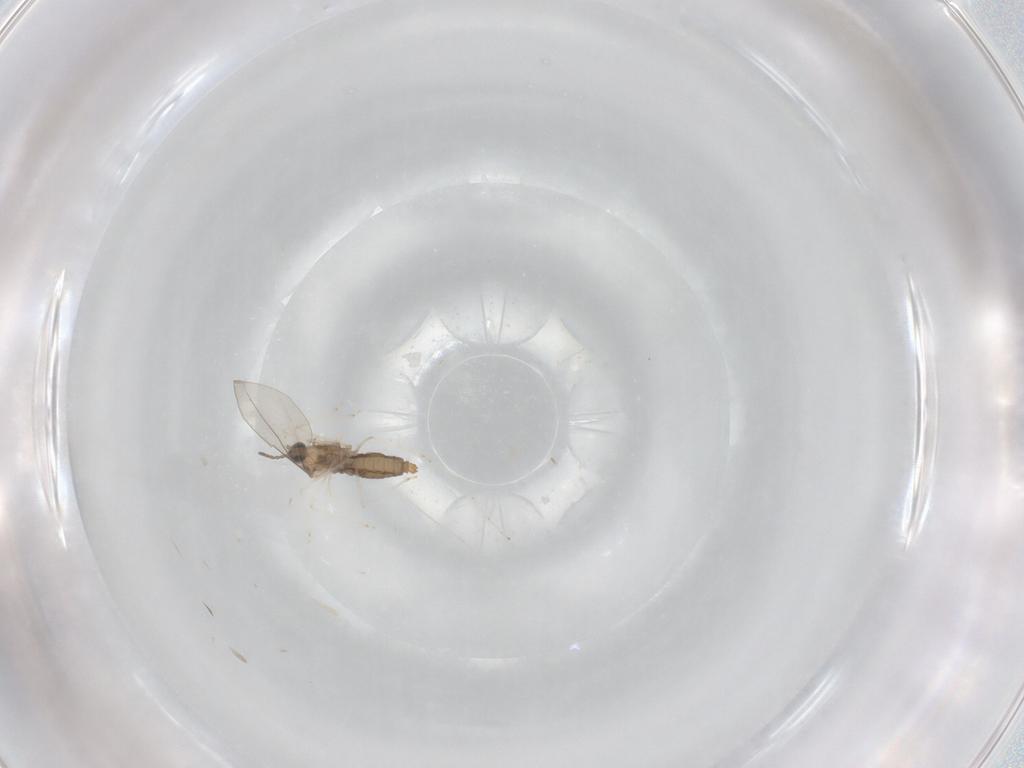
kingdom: Animalia
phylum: Arthropoda
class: Insecta
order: Diptera
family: Cecidomyiidae
